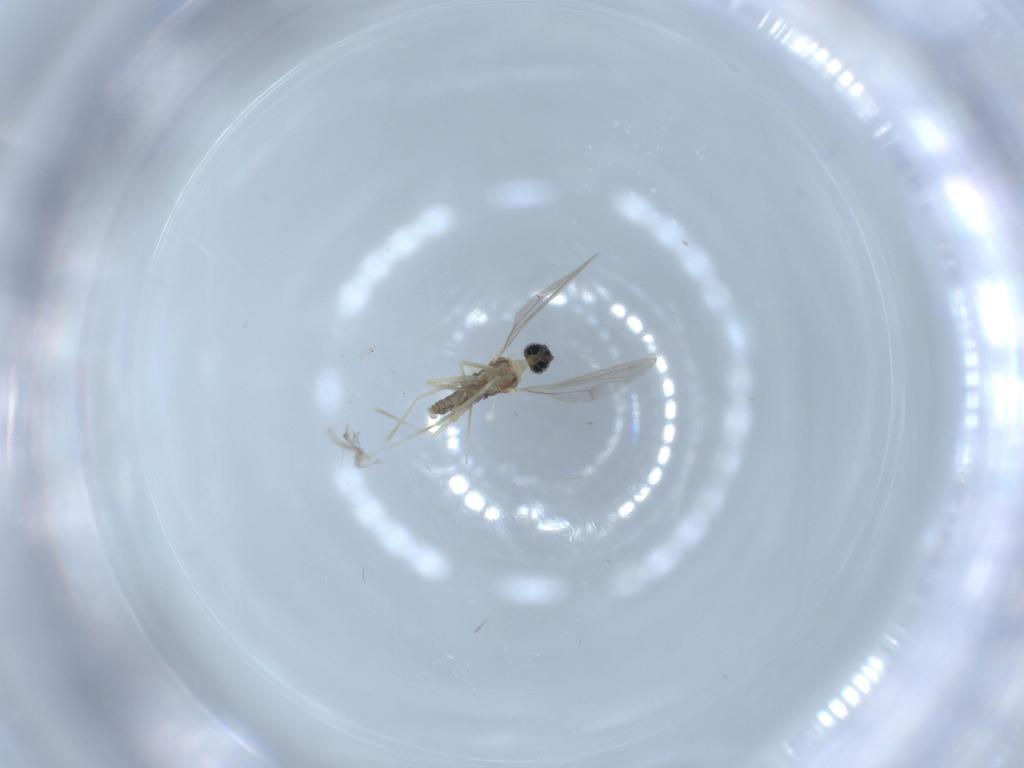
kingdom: Animalia
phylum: Arthropoda
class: Insecta
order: Diptera
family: Cecidomyiidae
